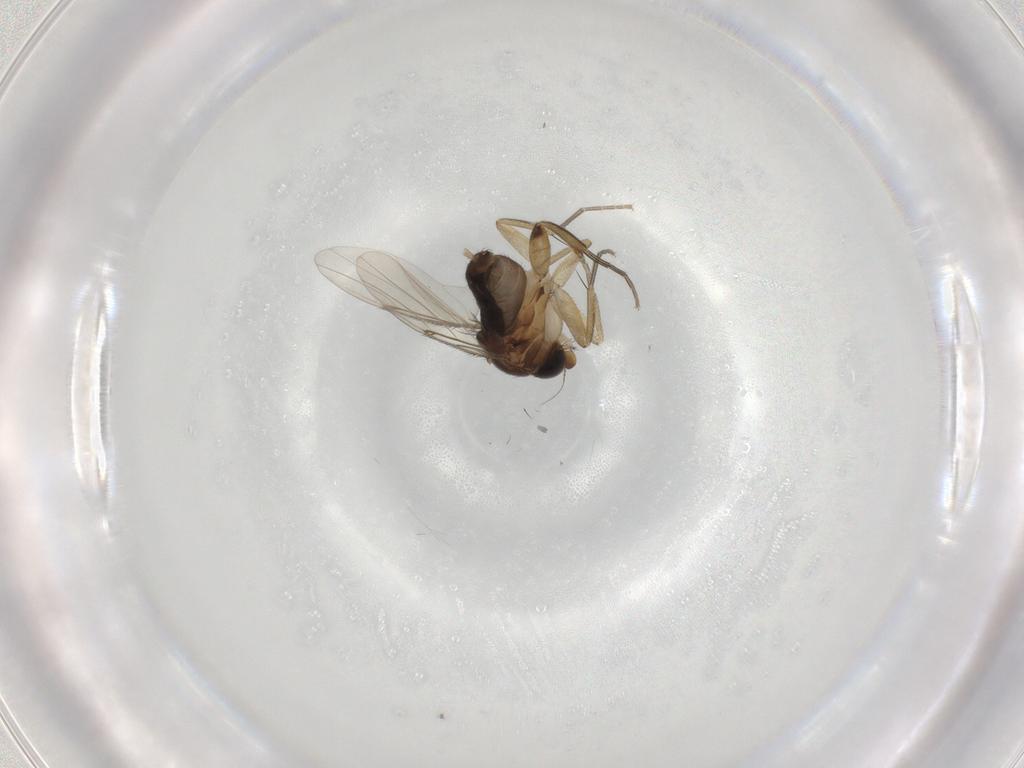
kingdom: Animalia
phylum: Arthropoda
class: Insecta
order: Diptera
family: Phoridae
